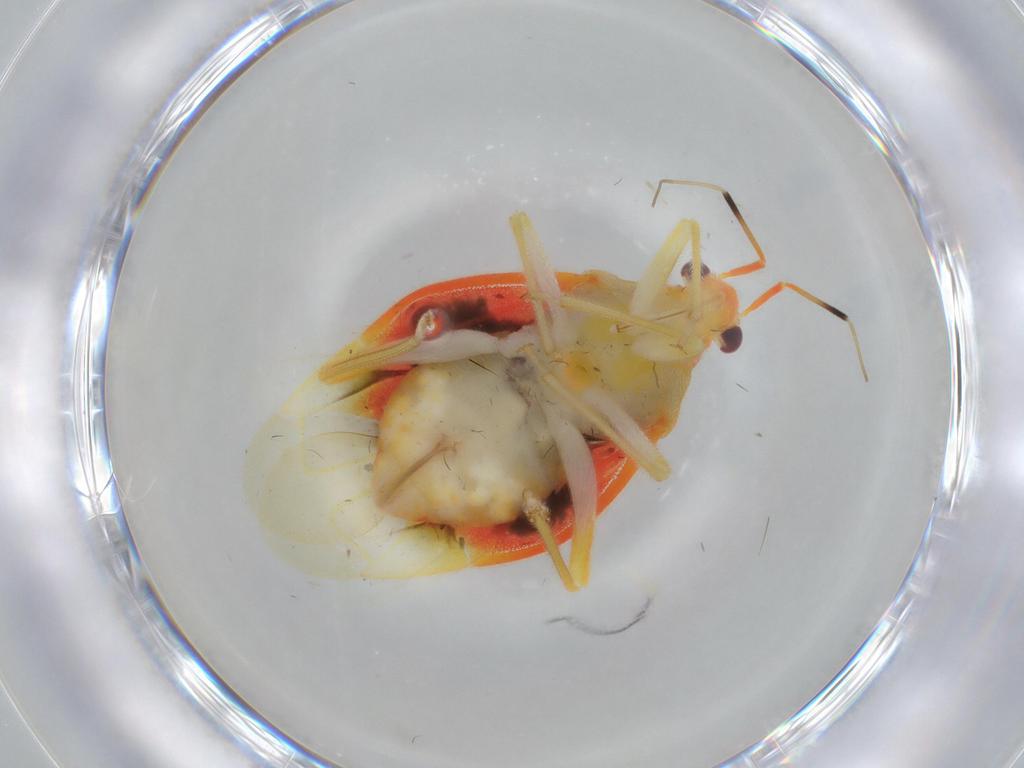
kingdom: Animalia
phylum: Arthropoda
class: Insecta
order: Hemiptera
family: Miridae
